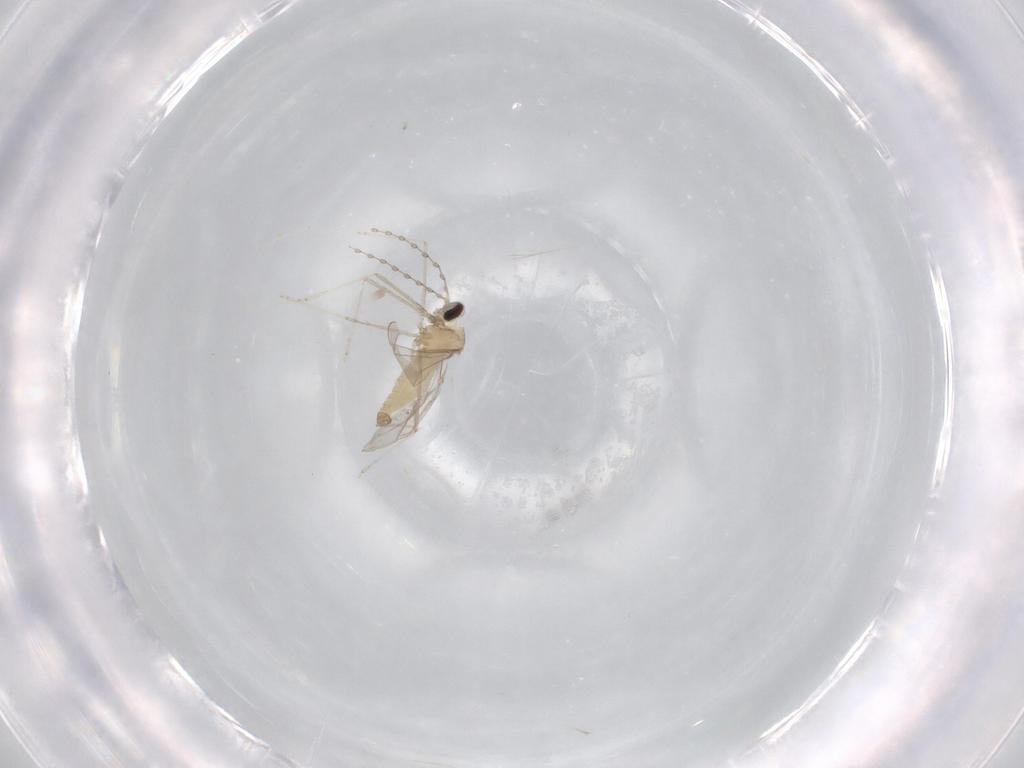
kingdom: Animalia
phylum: Arthropoda
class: Insecta
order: Diptera
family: Cecidomyiidae
